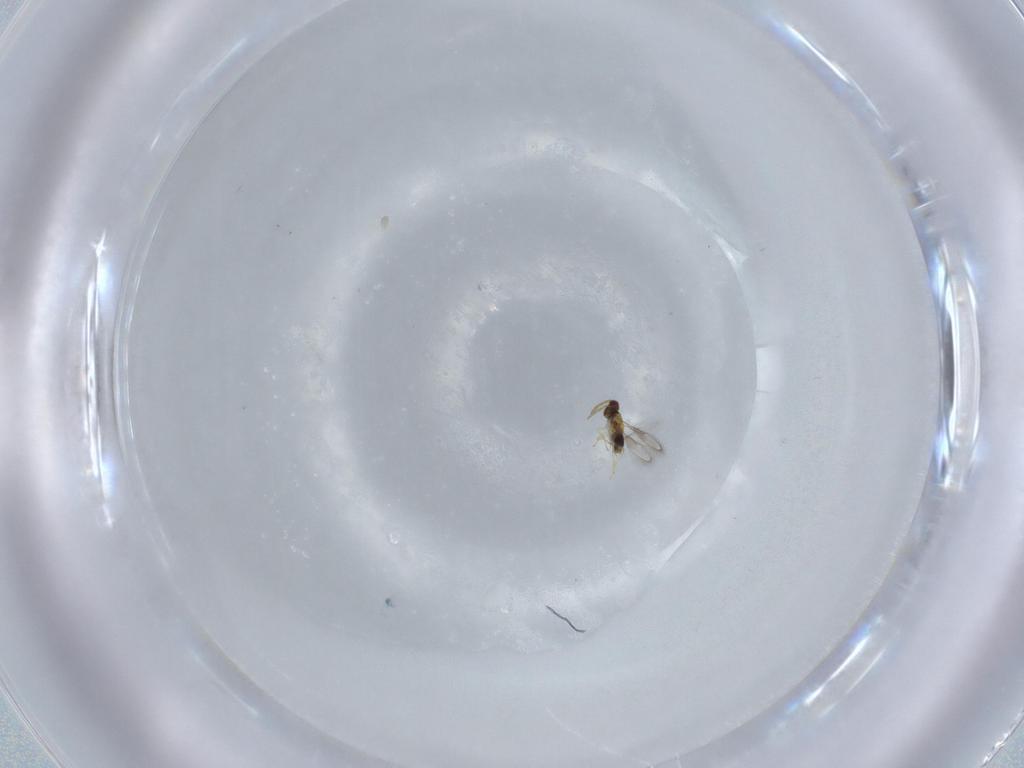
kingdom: Animalia
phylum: Arthropoda
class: Insecta
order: Hymenoptera
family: Aphelinidae
